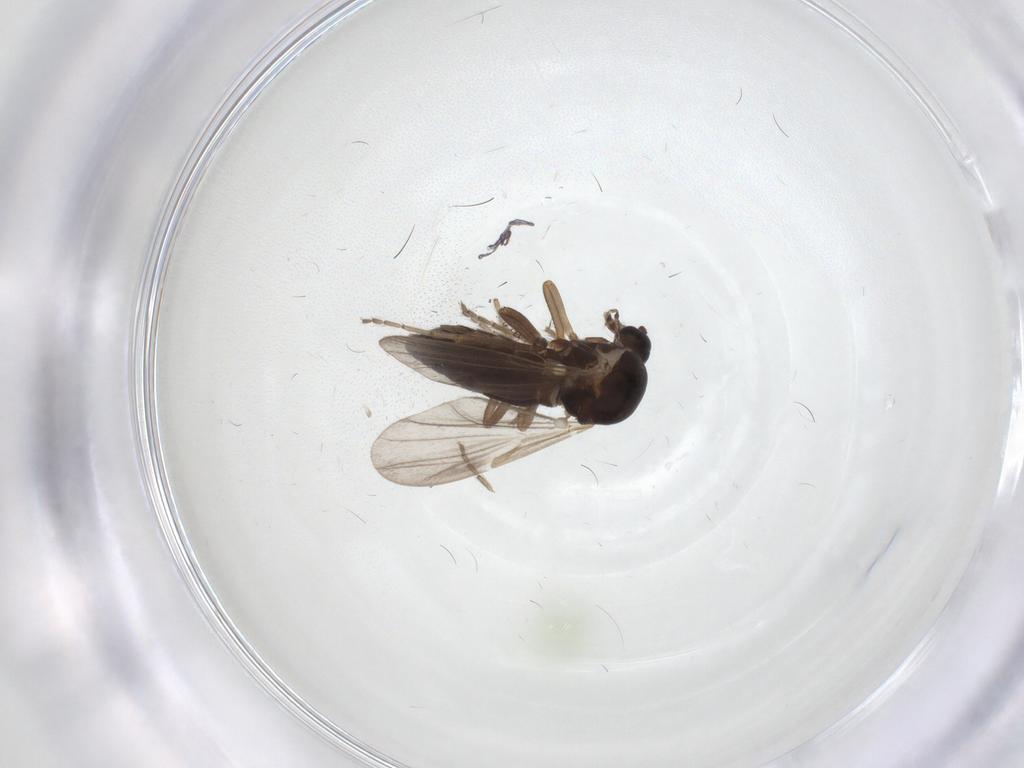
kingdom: Animalia
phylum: Arthropoda
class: Insecta
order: Diptera
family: Ceratopogonidae
